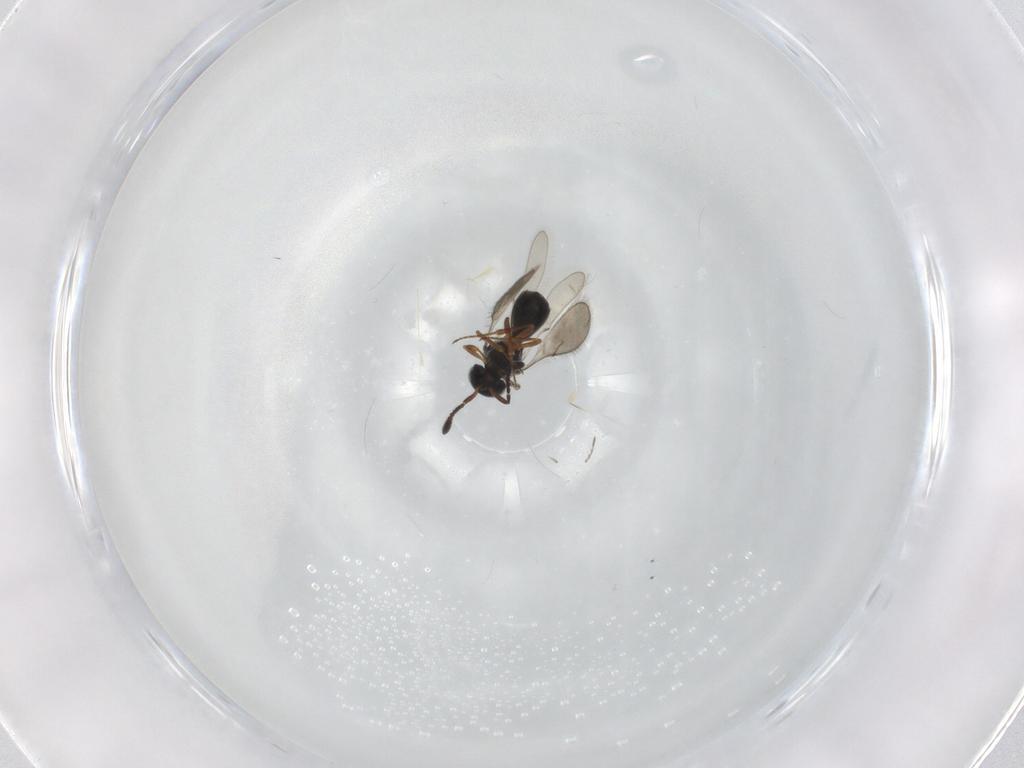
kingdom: Animalia
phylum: Arthropoda
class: Insecta
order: Hymenoptera
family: Scelionidae
